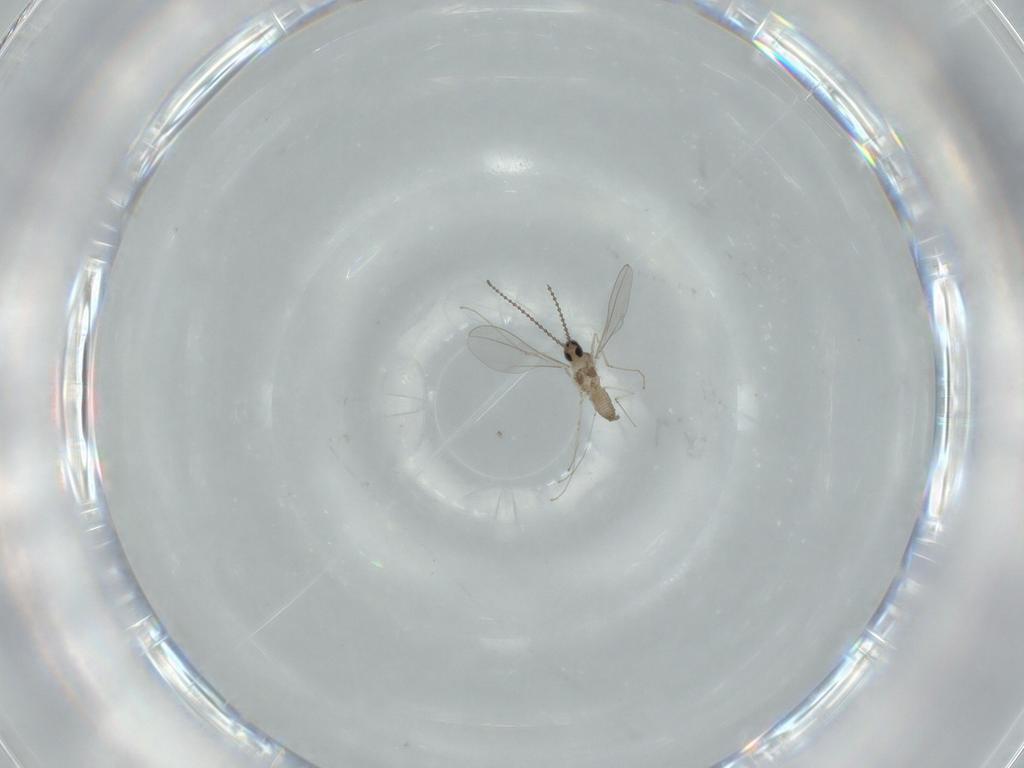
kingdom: Animalia
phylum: Arthropoda
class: Insecta
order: Diptera
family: Cecidomyiidae
